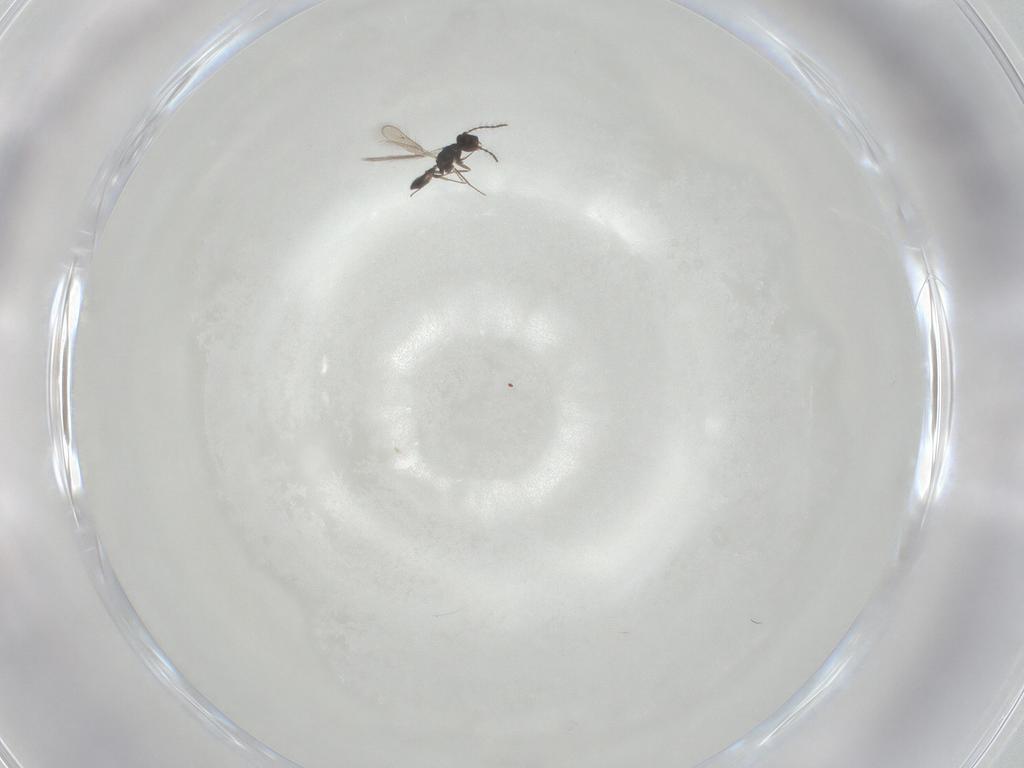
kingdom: Animalia
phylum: Arthropoda
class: Insecta
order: Hymenoptera
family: Pteromalidae
